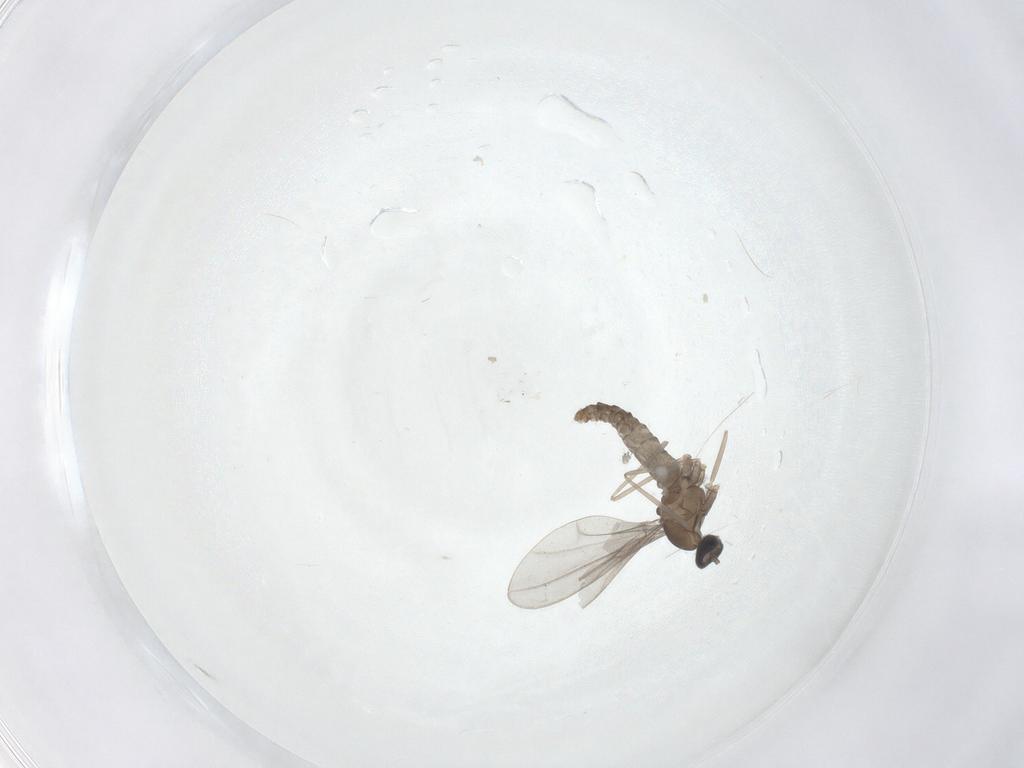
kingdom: Animalia
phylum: Arthropoda
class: Insecta
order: Diptera
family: Cecidomyiidae
